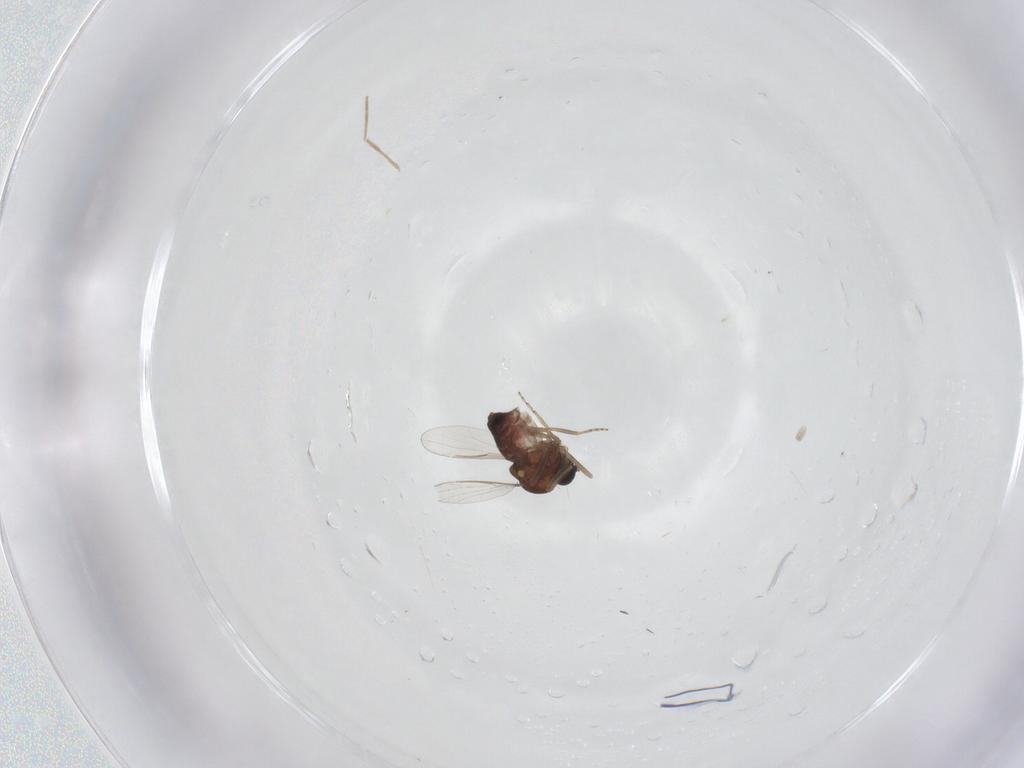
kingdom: Animalia
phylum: Arthropoda
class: Insecta
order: Diptera
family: Ceratopogonidae
